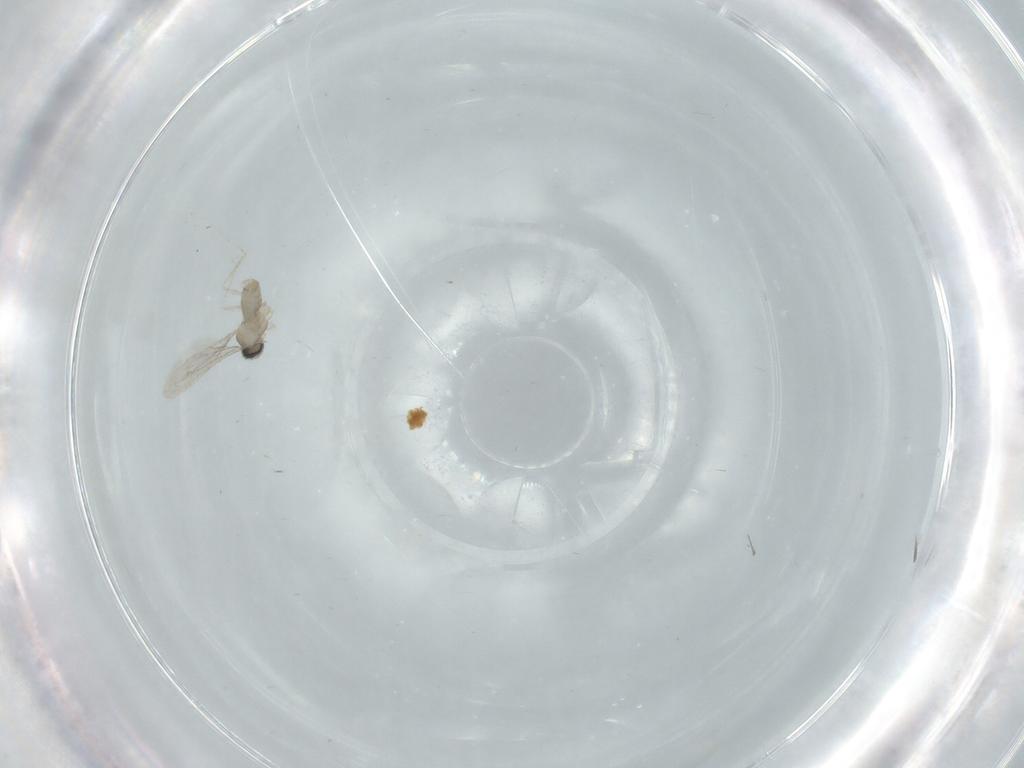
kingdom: Animalia
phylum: Arthropoda
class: Insecta
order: Diptera
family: Cecidomyiidae
